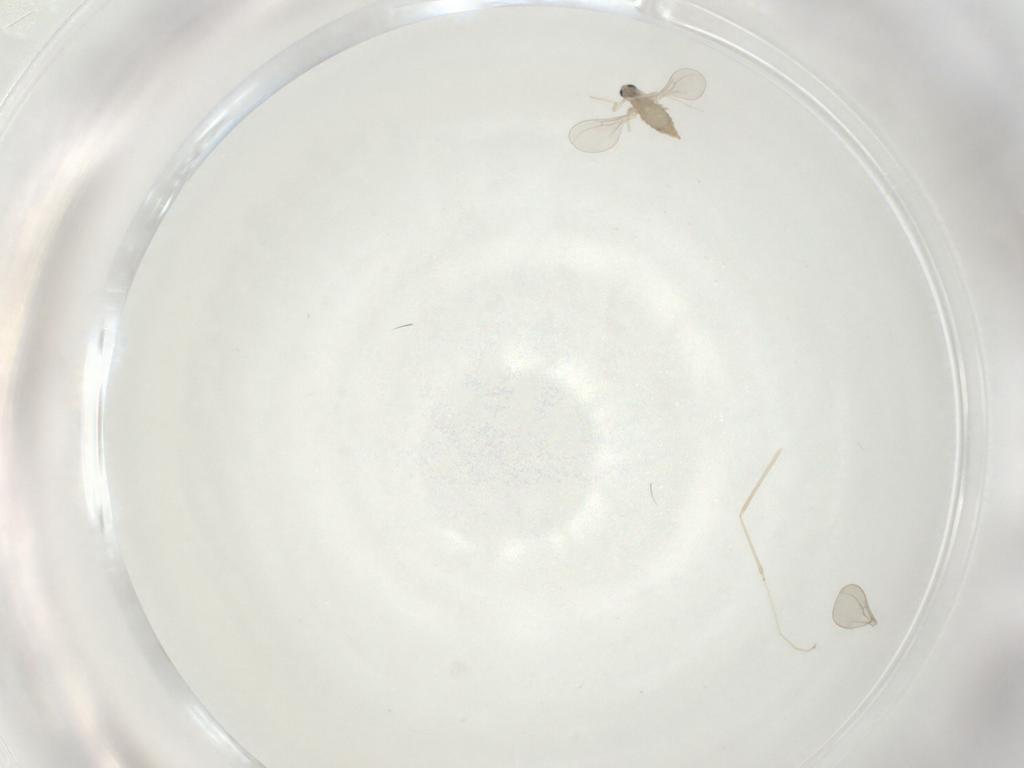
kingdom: Animalia
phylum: Arthropoda
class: Insecta
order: Diptera
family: Cecidomyiidae
